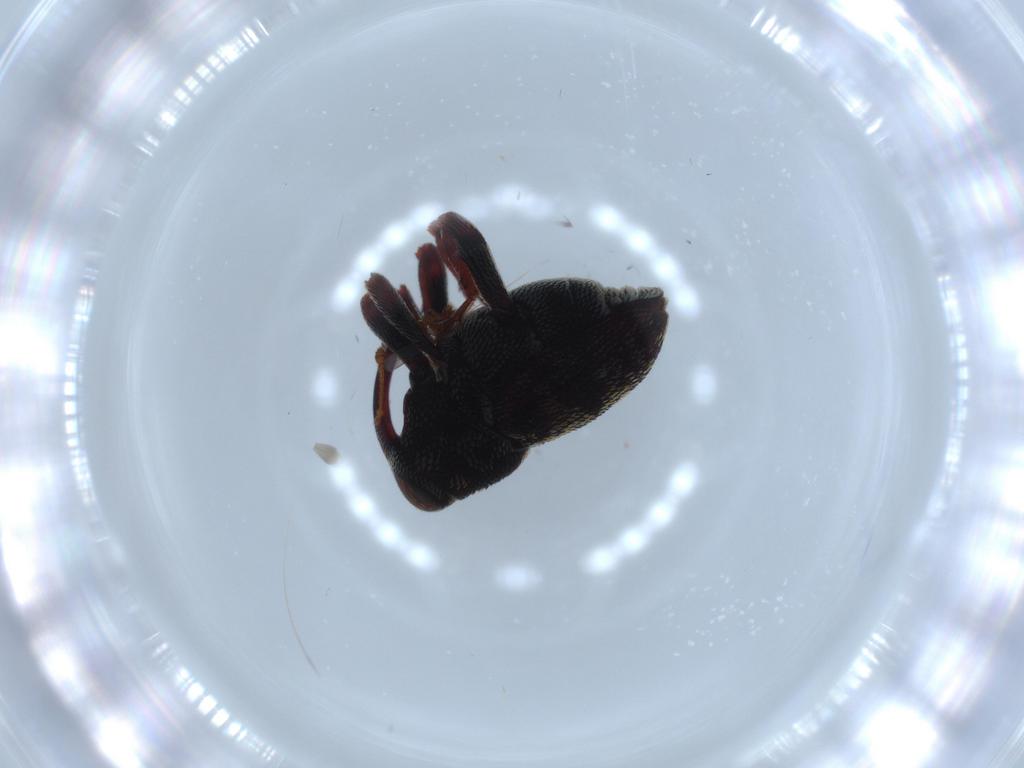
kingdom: Animalia
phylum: Arthropoda
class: Insecta
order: Coleoptera
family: Curculionidae
